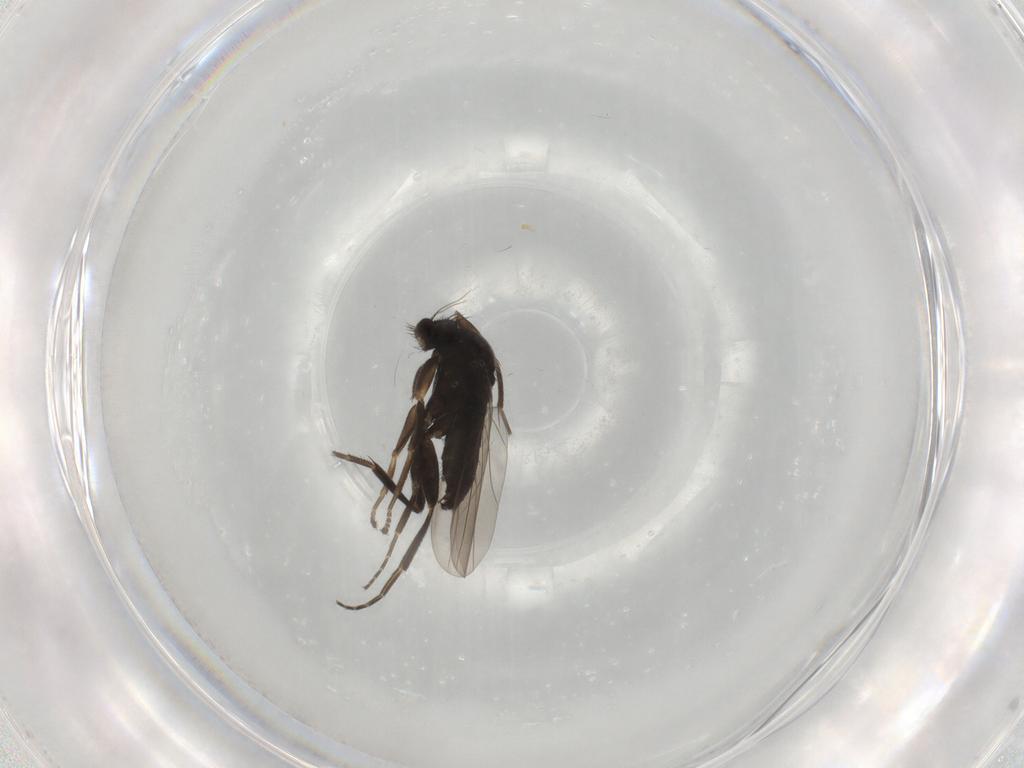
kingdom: Animalia
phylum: Arthropoda
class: Insecta
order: Diptera
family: Phoridae
